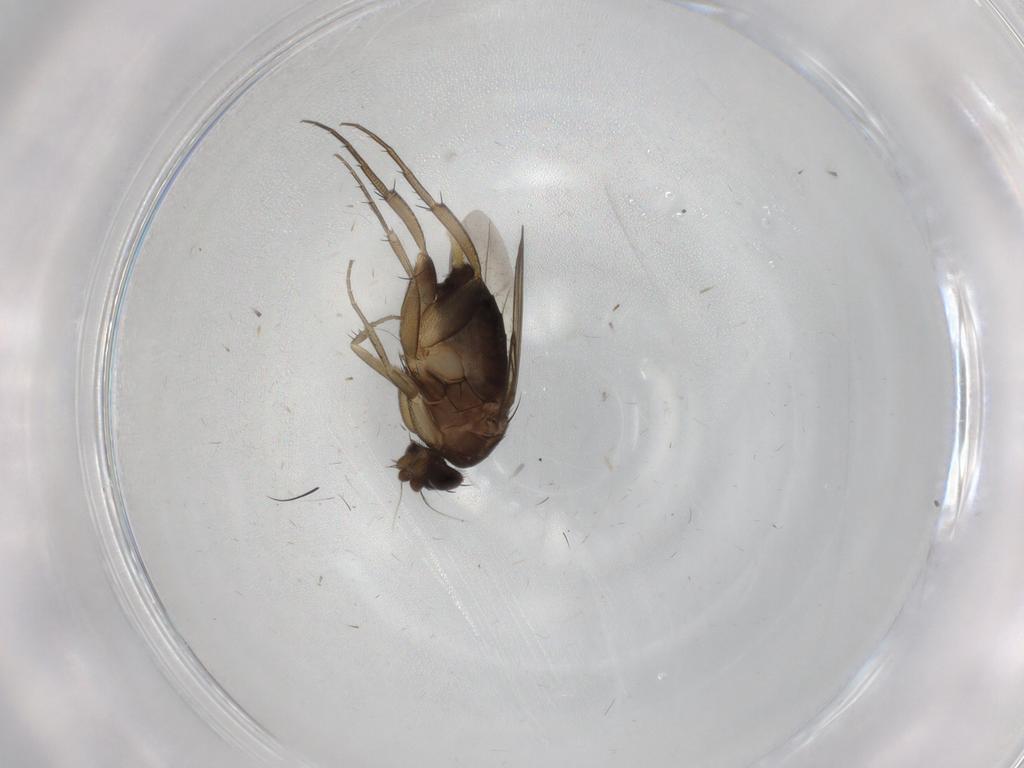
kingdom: Animalia
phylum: Arthropoda
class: Insecta
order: Diptera
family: Phoridae
